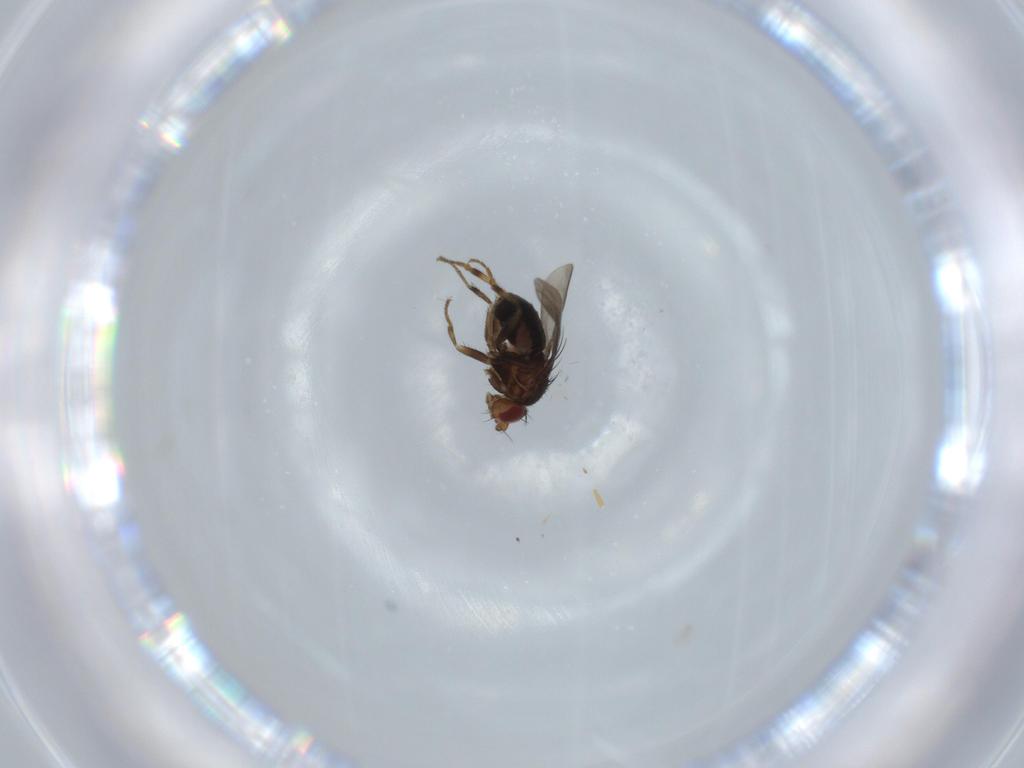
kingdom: Animalia
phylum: Arthropoda
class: Insecta
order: Diptera
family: Sphaeroceridae
